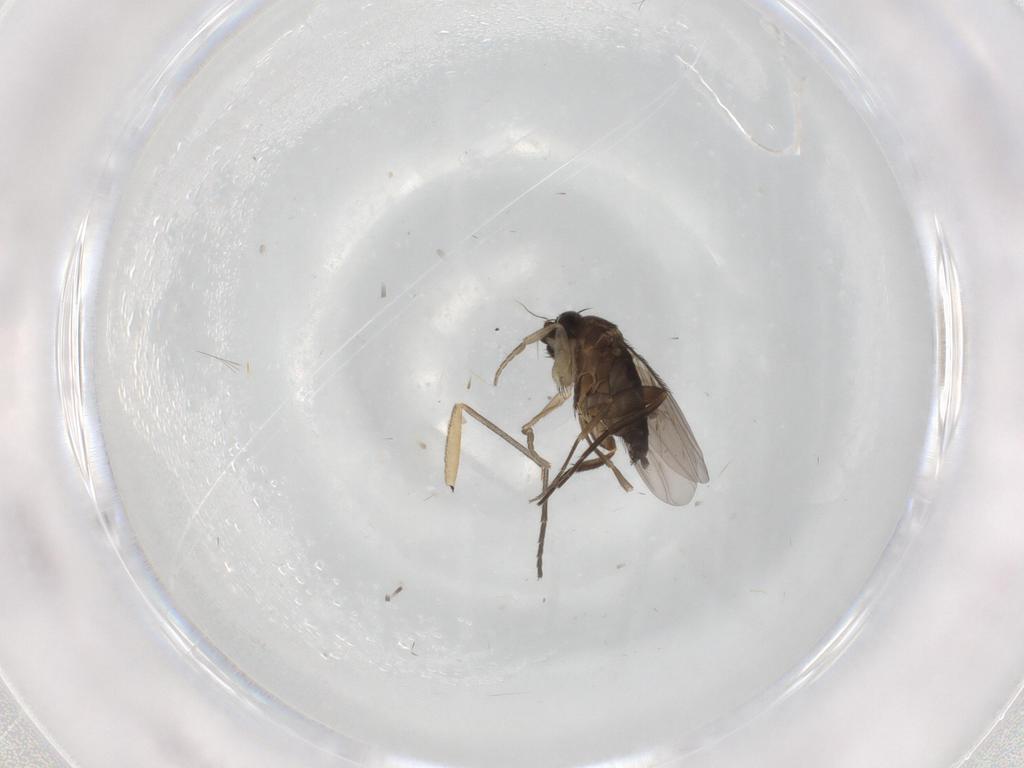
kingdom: Animalia
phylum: Arthropoda
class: Insecta
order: Diptera
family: Sciaridae
